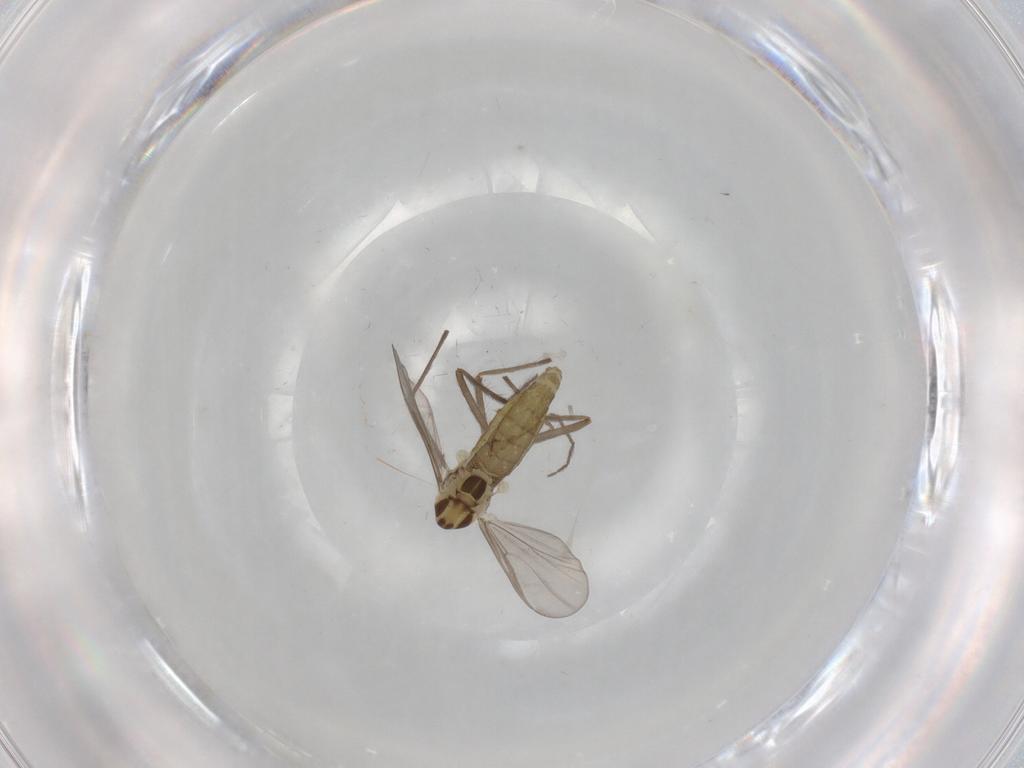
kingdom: Animalia
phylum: Arthropoda
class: Insecta
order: Diptera
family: Chironomidae
